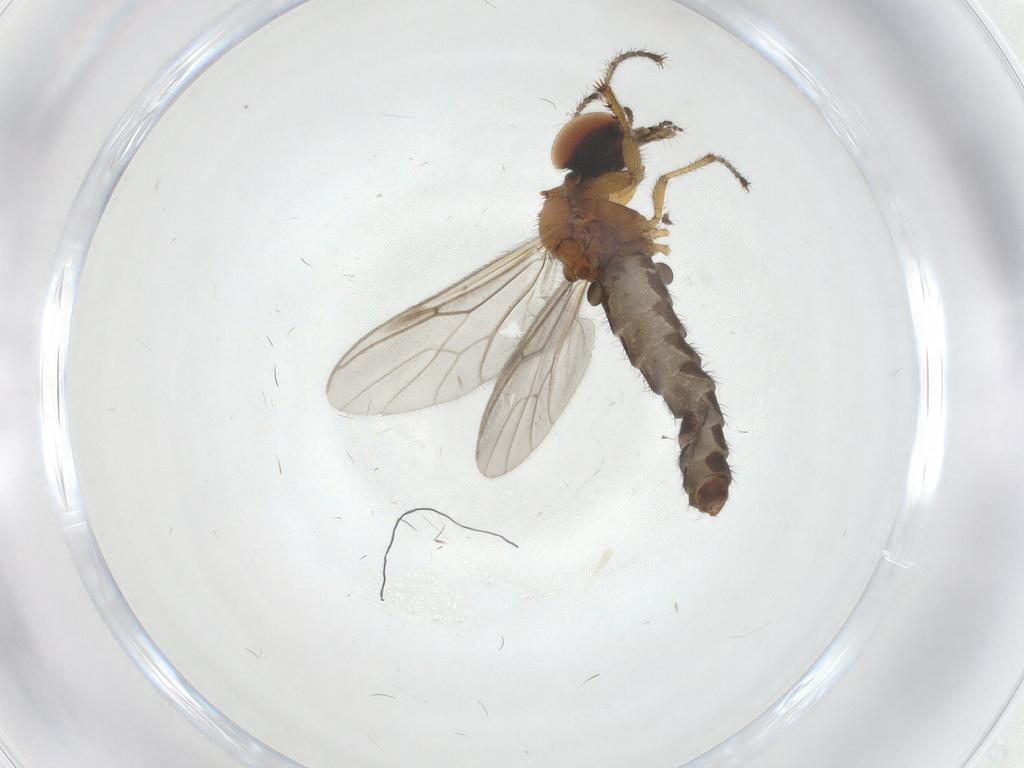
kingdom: Animalia
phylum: Arthropoda
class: Insecta
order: Diptera
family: Bibionidae
